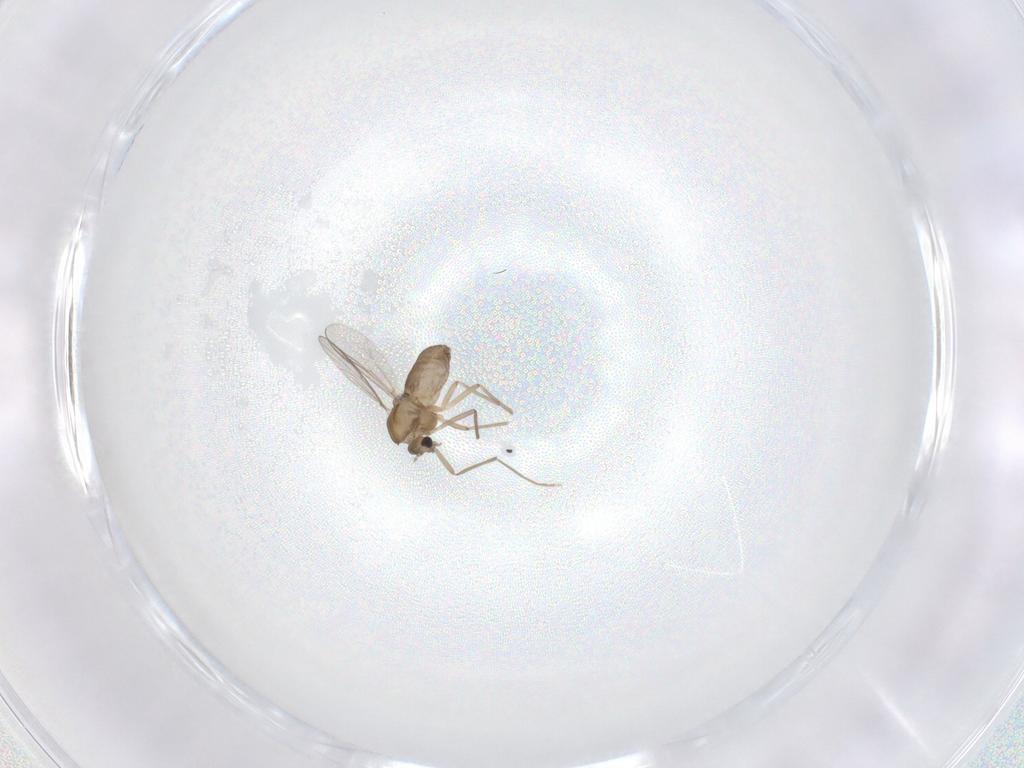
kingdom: Animalia
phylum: Arthropoda
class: Insecta
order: Diptera
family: Chironomidae
